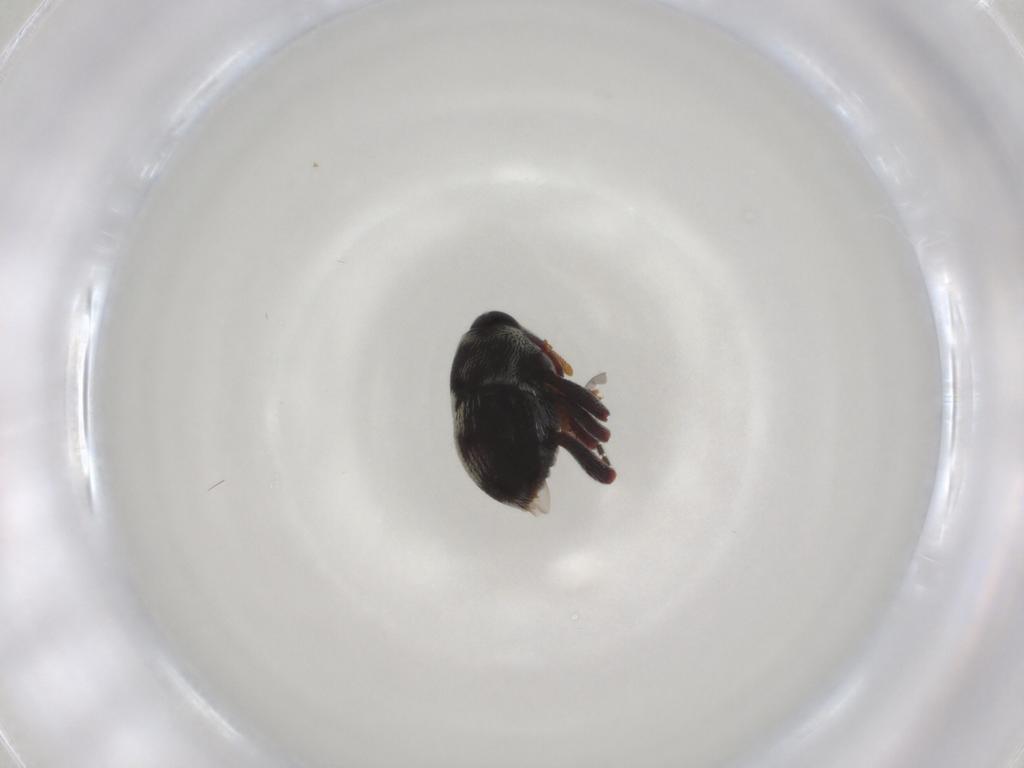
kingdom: Animalia
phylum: Arthropoda
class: Insecta
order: Coleoptera
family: Curculionidae
